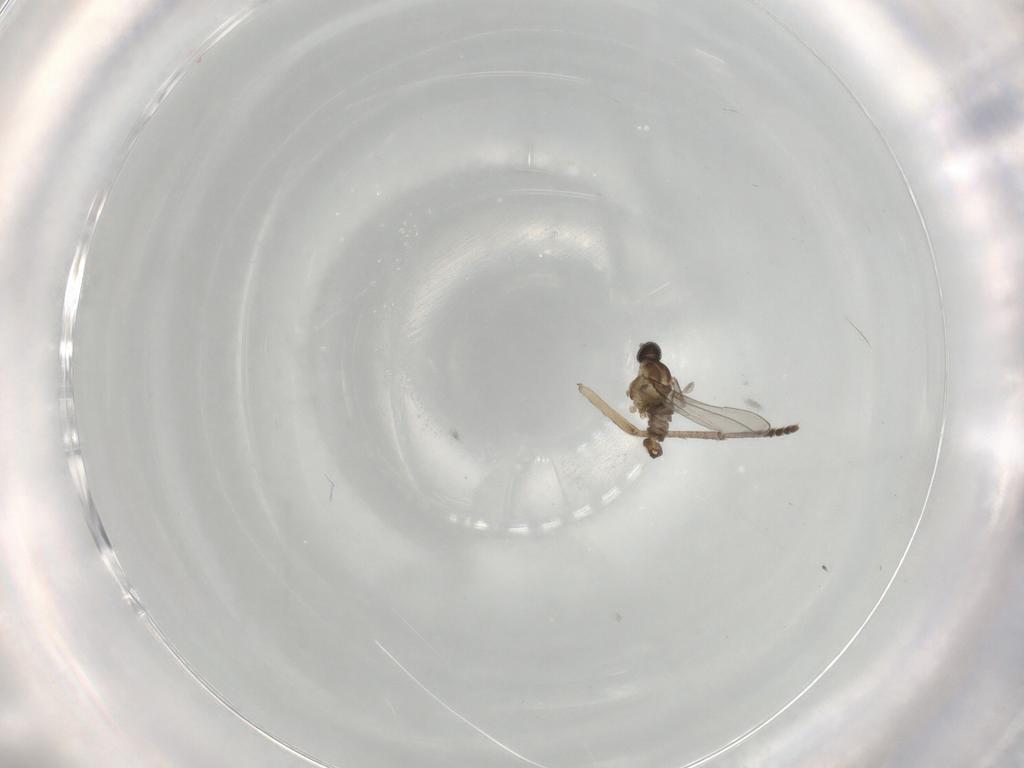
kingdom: Animalia
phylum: Arthropoda
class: Insecta
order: Diptera
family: Cecidomyiidae
